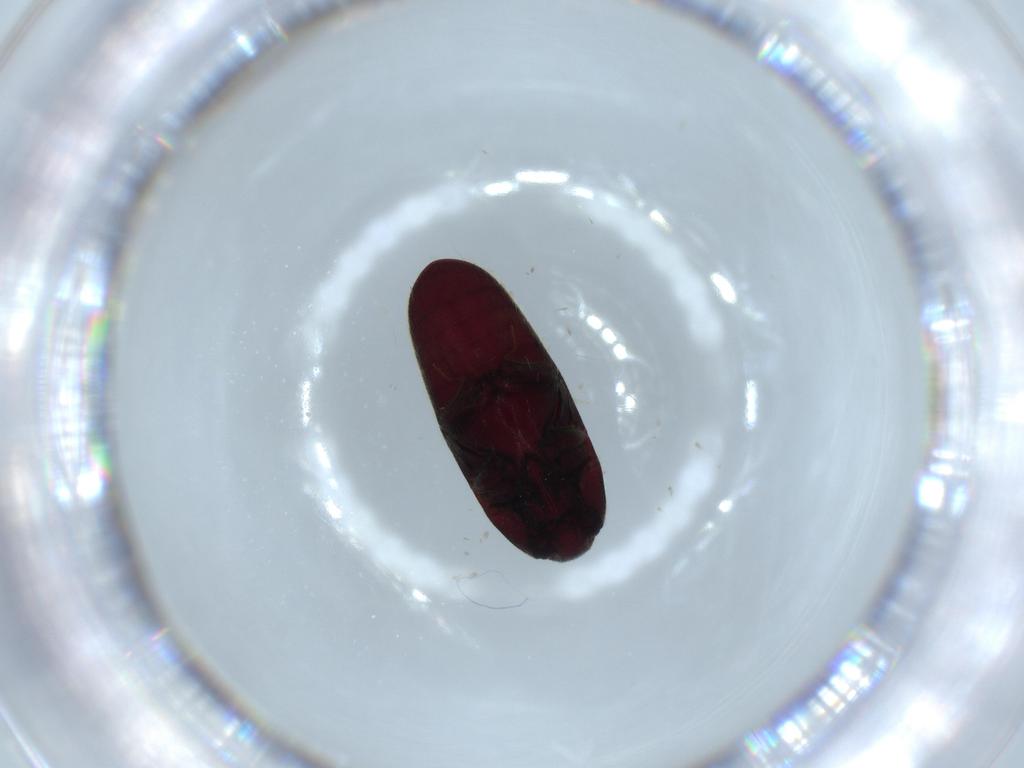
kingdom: Animalia
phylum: Arthropoda
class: Insecta
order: Coleoptera
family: Throscidae
